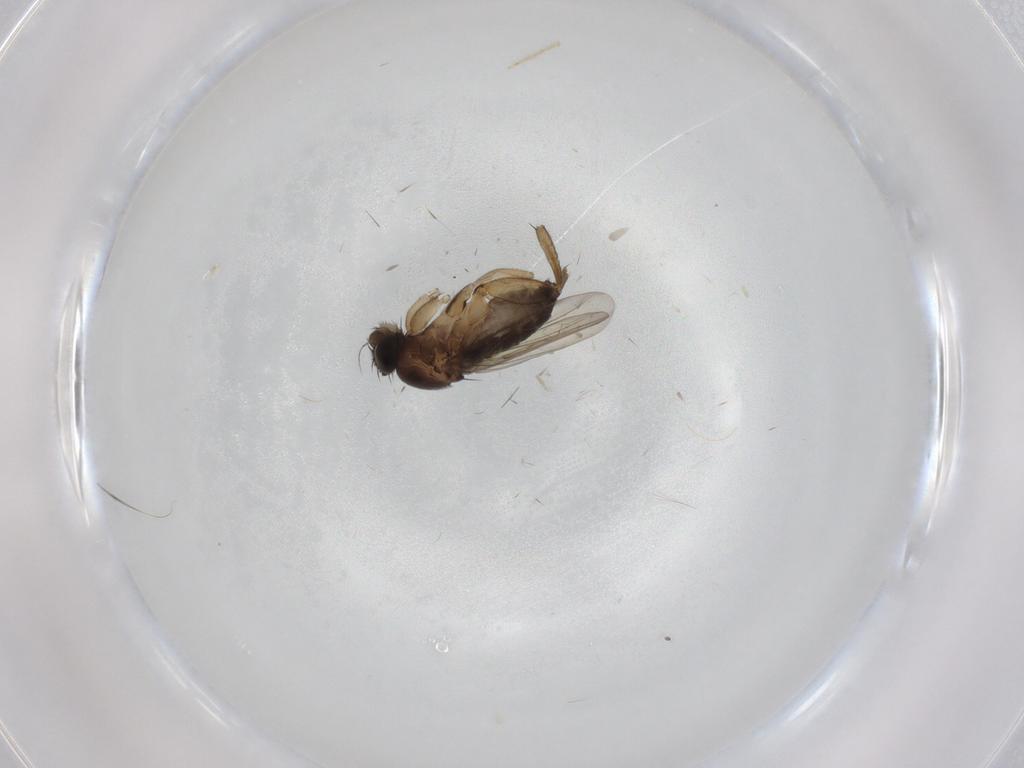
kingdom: Animalia
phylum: Arthropoda
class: Insecta
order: Diptera
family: Chironomidae
